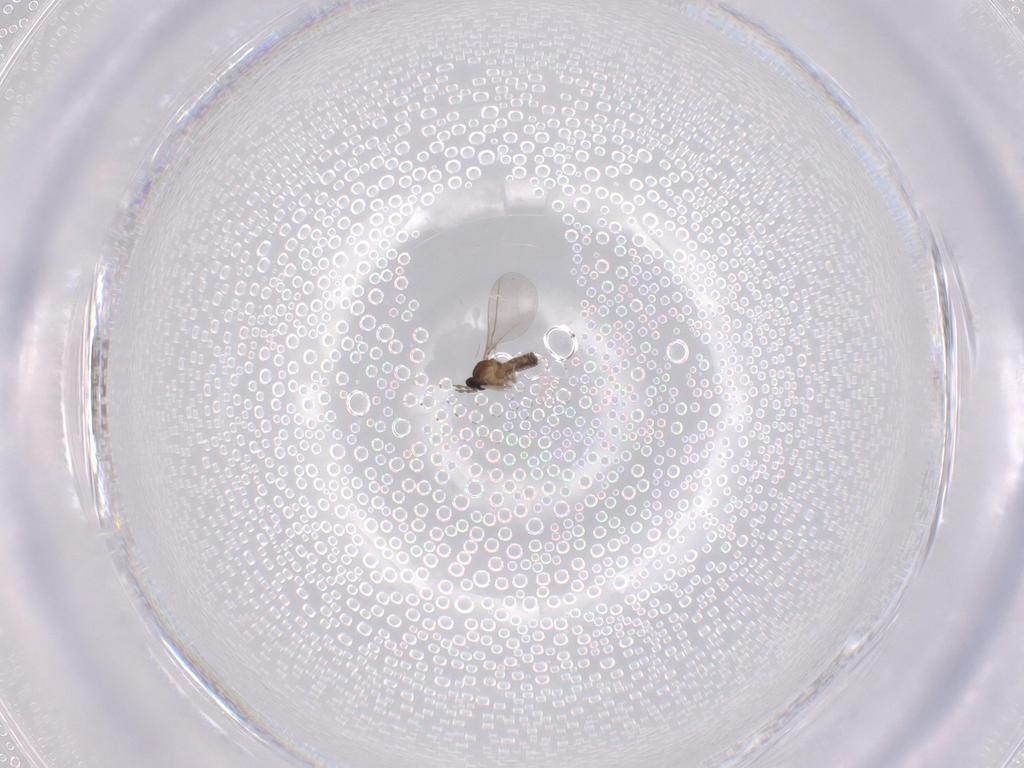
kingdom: Animalia
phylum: Arthropoda
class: Insecta
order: Diptera
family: Cecidomyiidae
